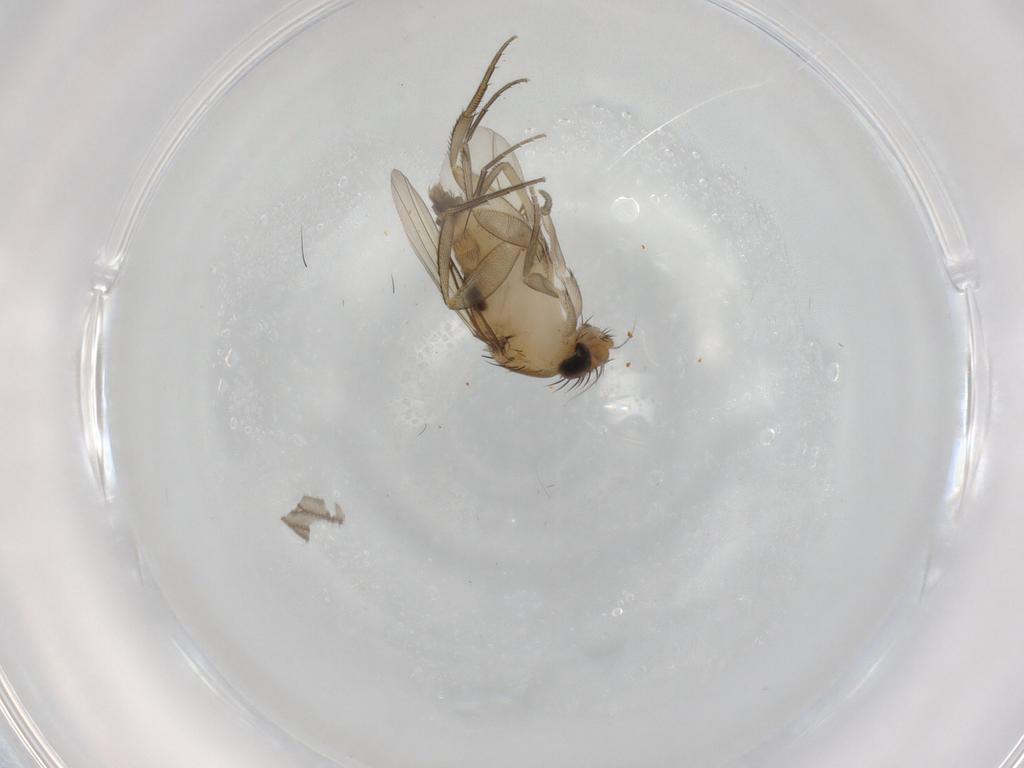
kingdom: Animalia
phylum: Arthropoda
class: Insecta
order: Diptera
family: Phoridae
